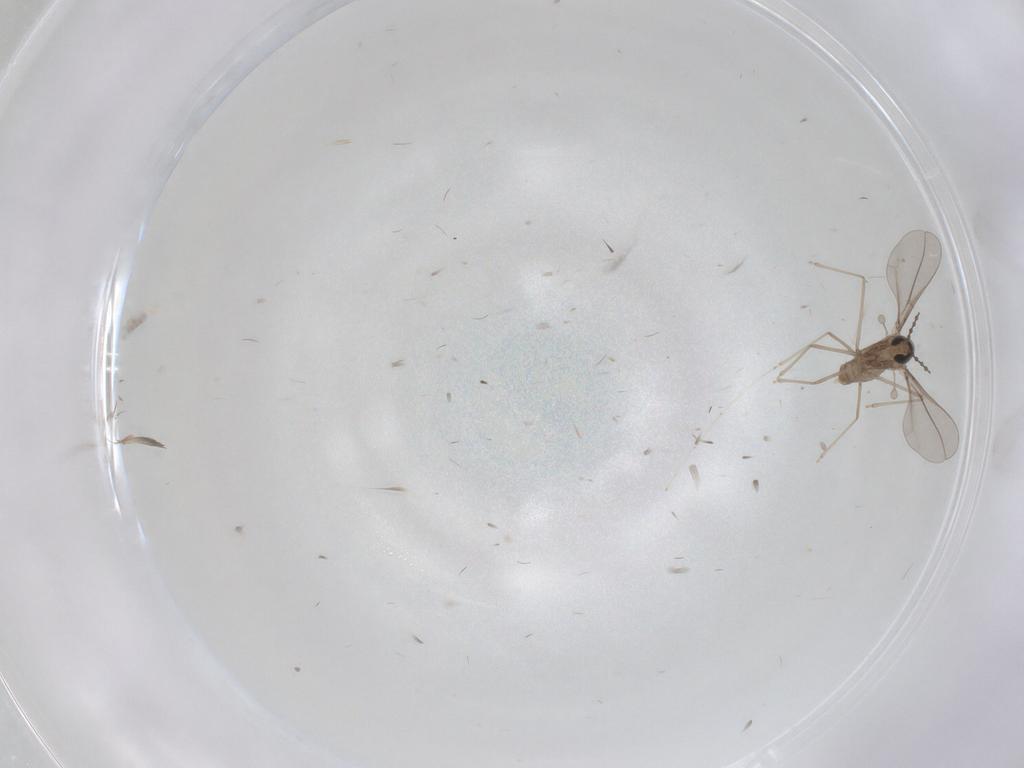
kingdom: Animalia
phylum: Arthropoda
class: Insecta
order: Diptera
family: Cecidomyiidae
